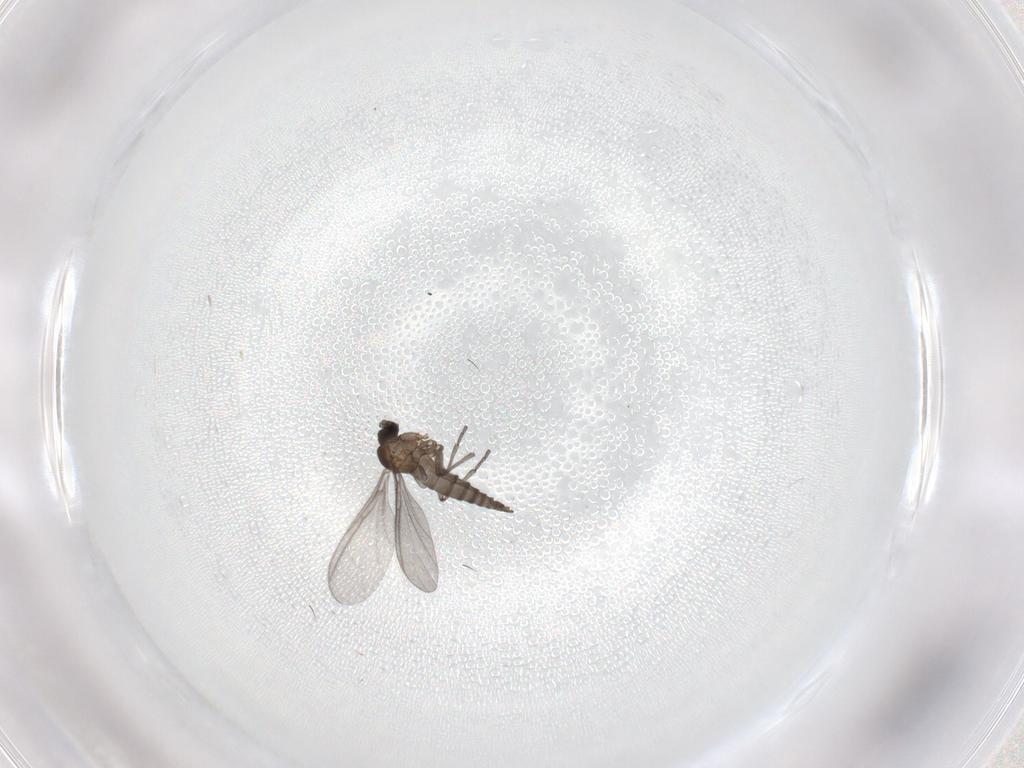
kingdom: Animalia
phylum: Arthropoda
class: Insecta
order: Diptera
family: Sciaridae
